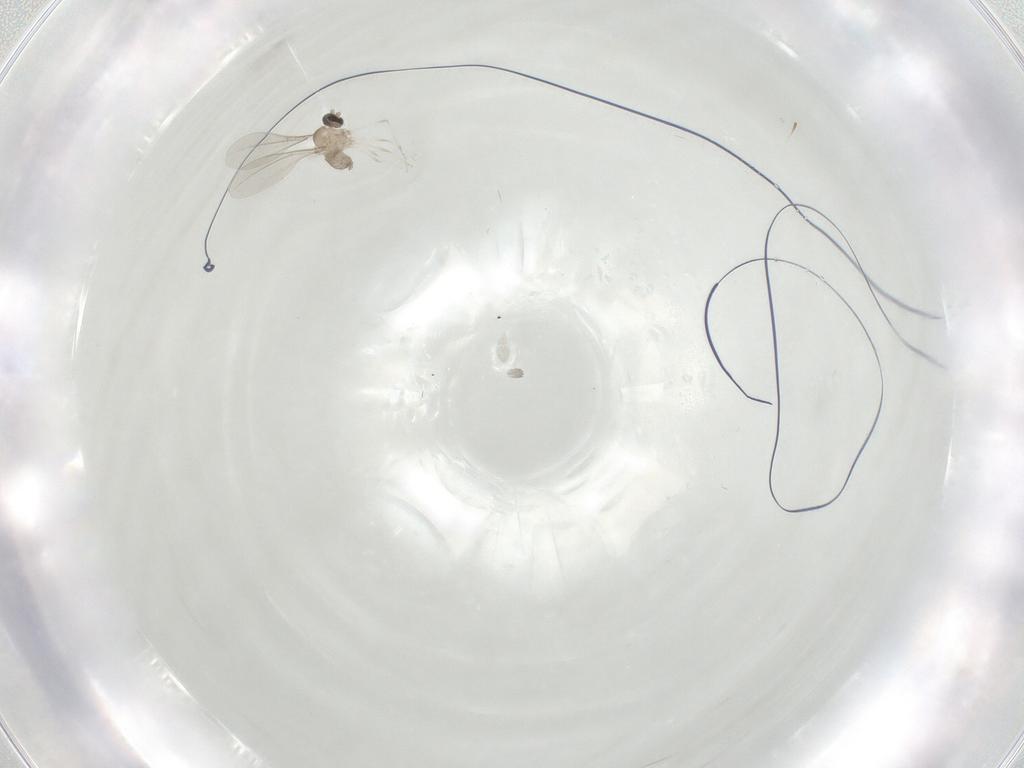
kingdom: Animalia
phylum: Arthropoda
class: Insecta
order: Diptera
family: Cecidomyiidae
